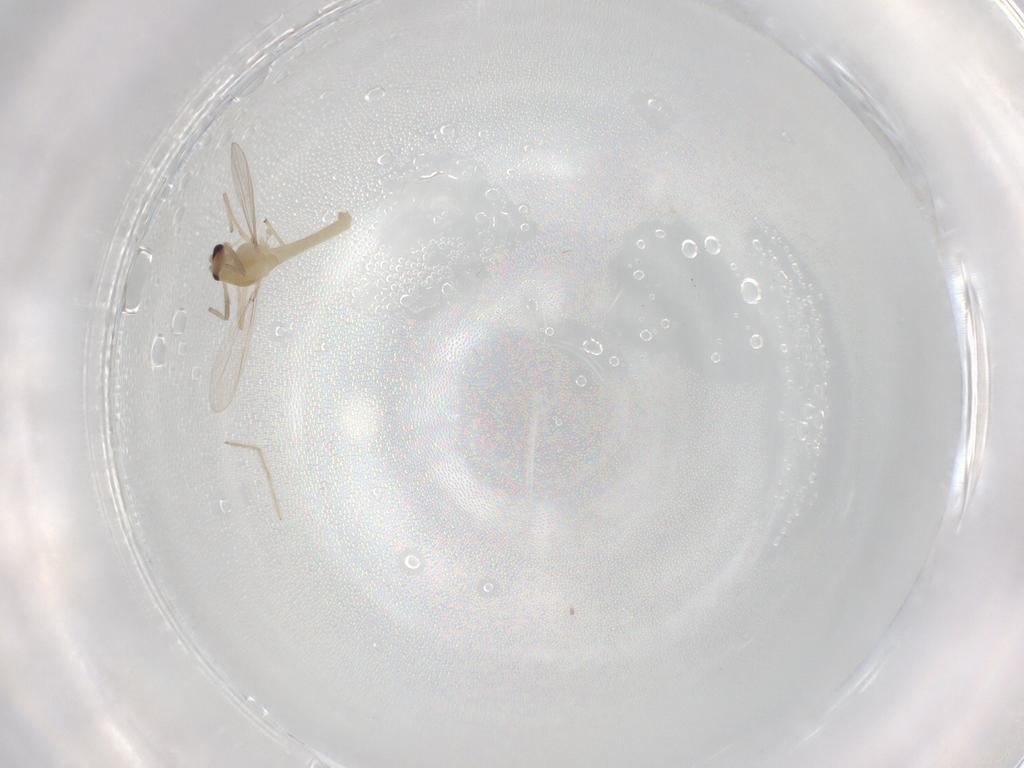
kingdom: Animalia
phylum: Arthropoda
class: Insecta
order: Diptera
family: Chironomidae
